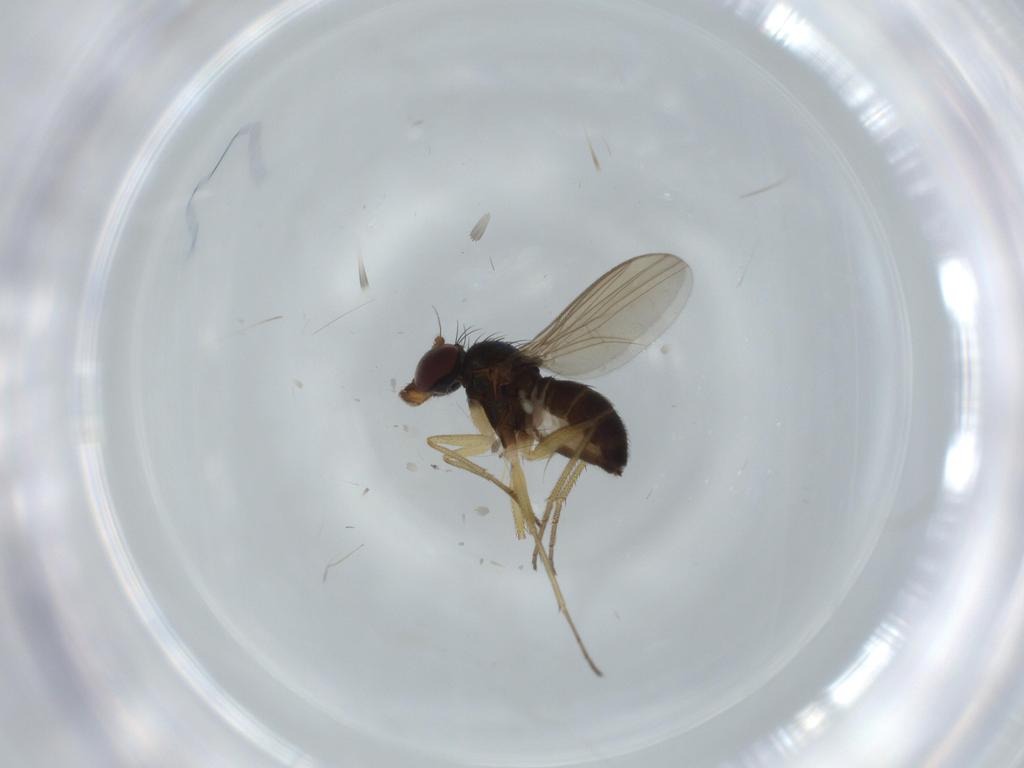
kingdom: Animalia
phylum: Arthropoda
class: Insecta
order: Diptera
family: Dolichopodidae
